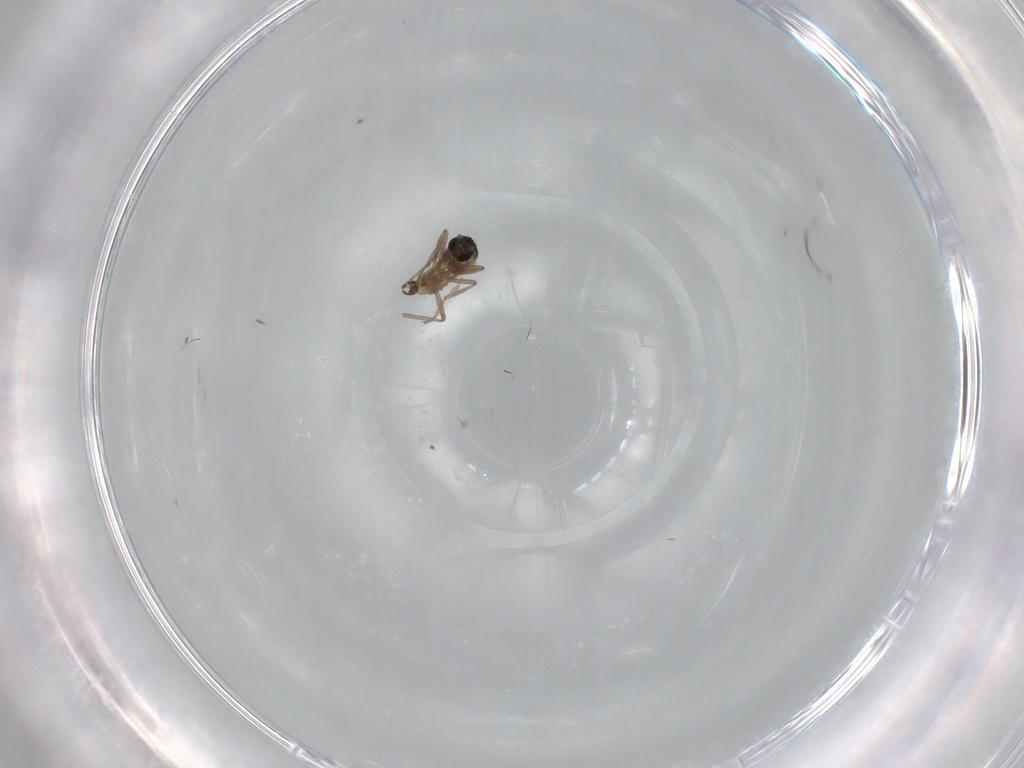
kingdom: Animalia
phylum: Arthropoda
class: Insecta
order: Diptera
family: Cecidomyiidae
